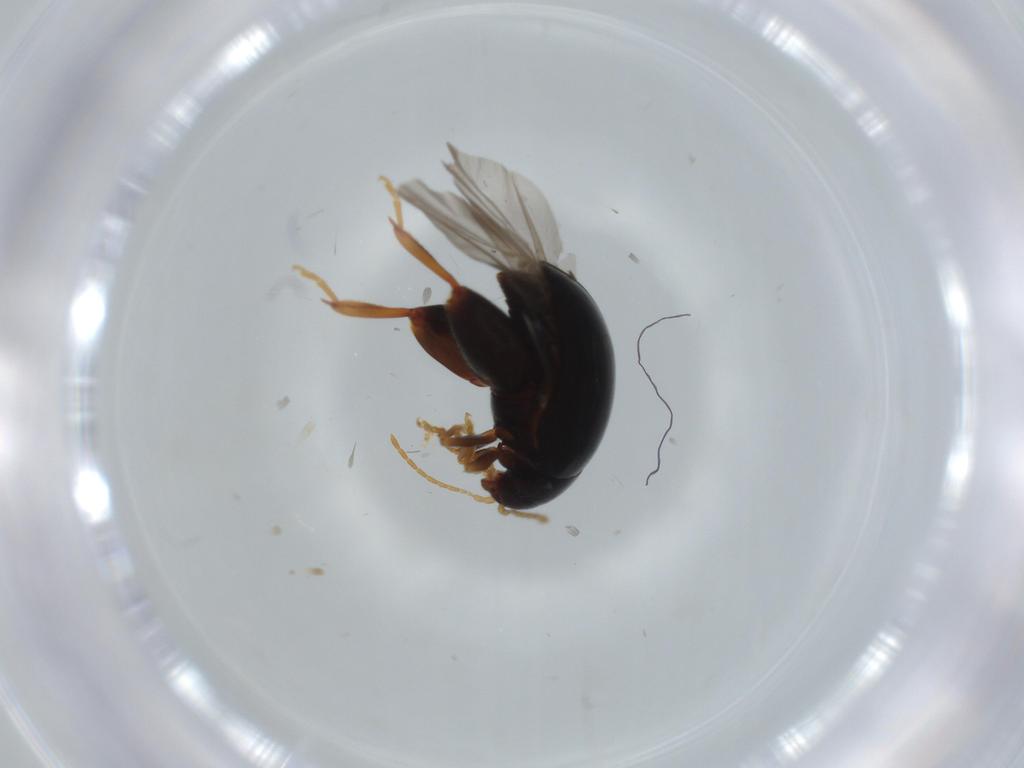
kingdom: Animalia
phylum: Arthropoda
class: Insecta
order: Coleoptera
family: Chrysomelidae
